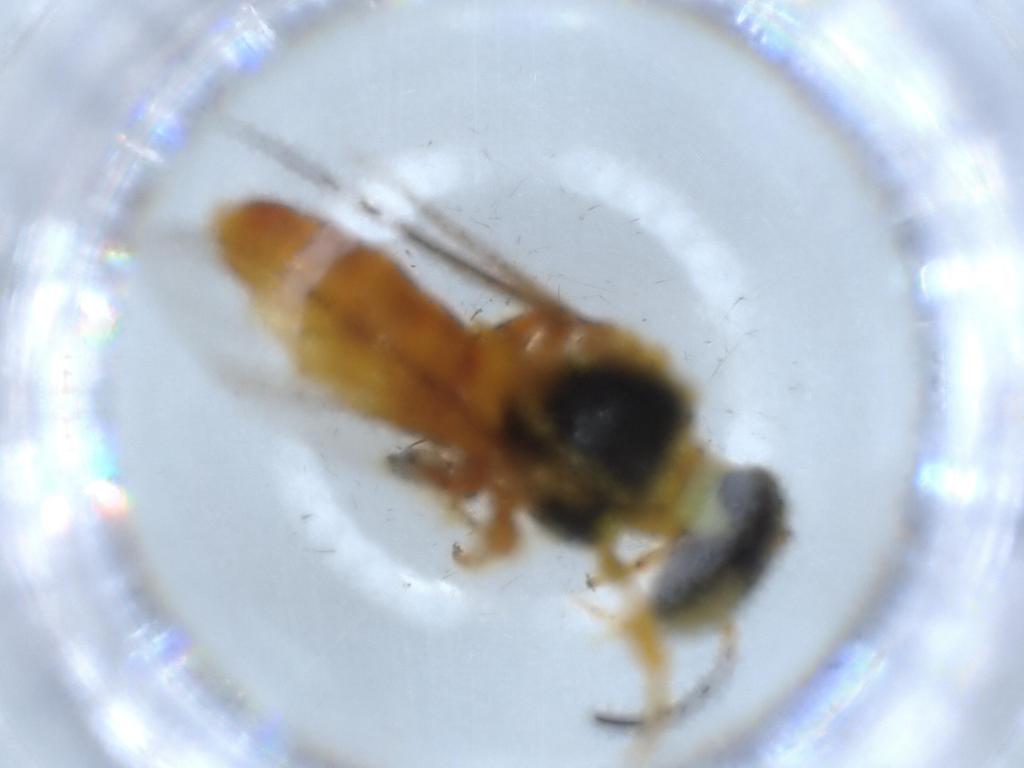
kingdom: Animalia
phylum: Arthropoda
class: Insecta
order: Hymenoptera
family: Apidae
